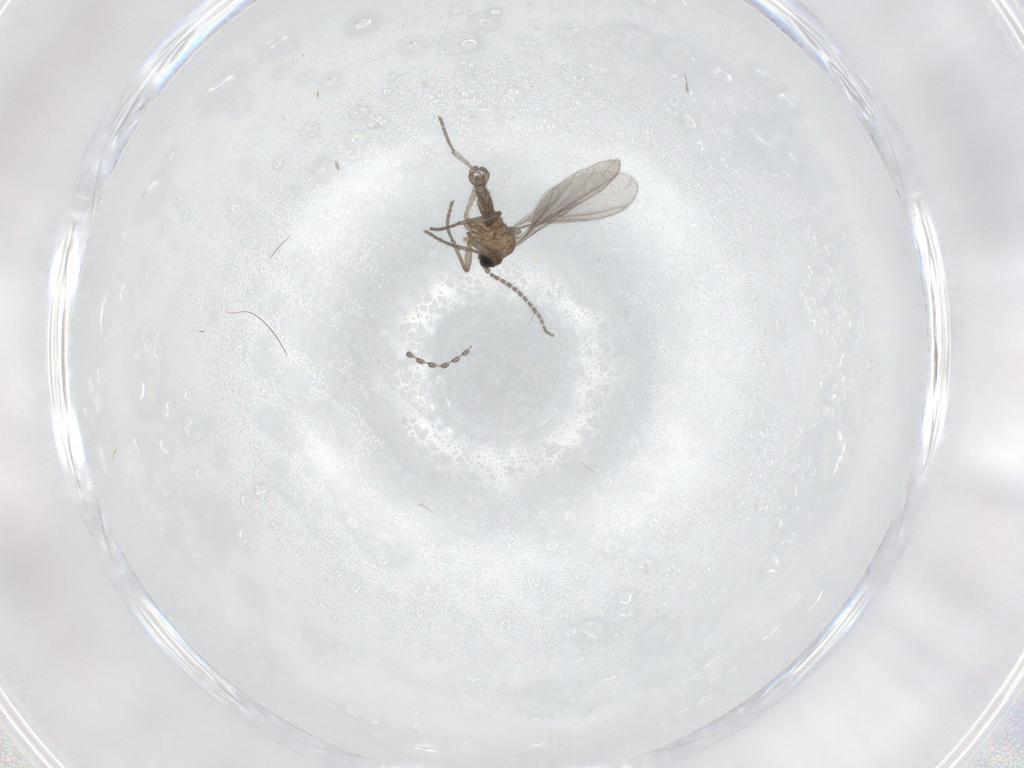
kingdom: Animalia
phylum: Arthropoda
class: Insecta
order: Diptera
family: Sciaridae
